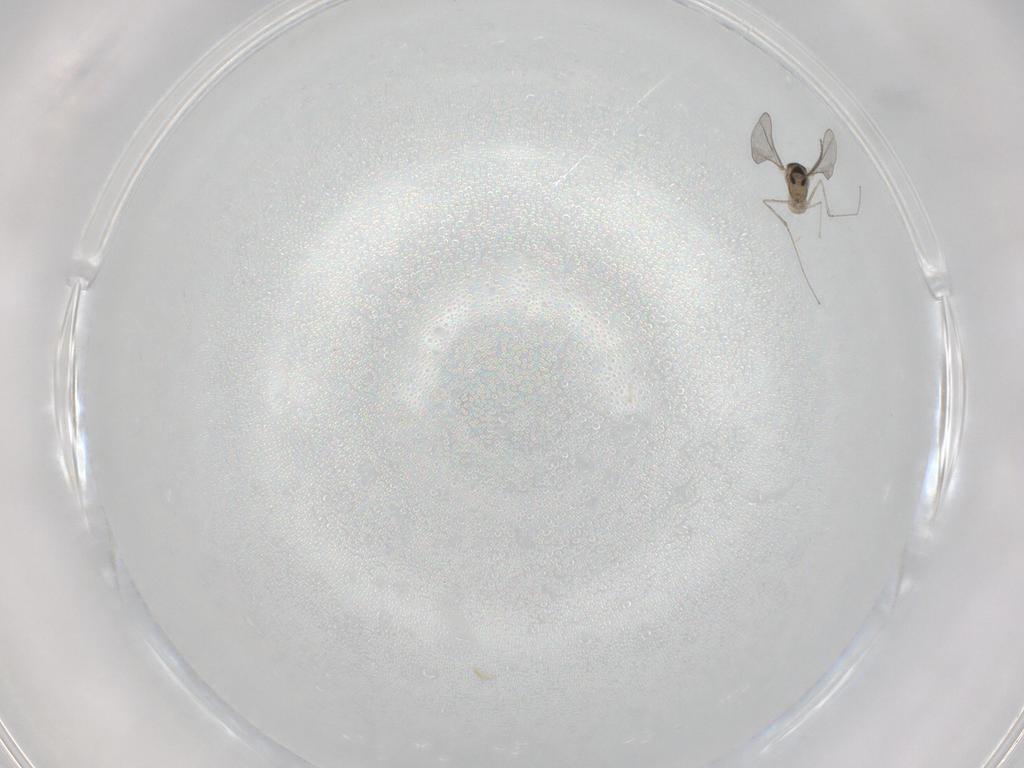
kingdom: Animalia
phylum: Arthropoda
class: Insecta
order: Diptera
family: Cecidomyiidae
